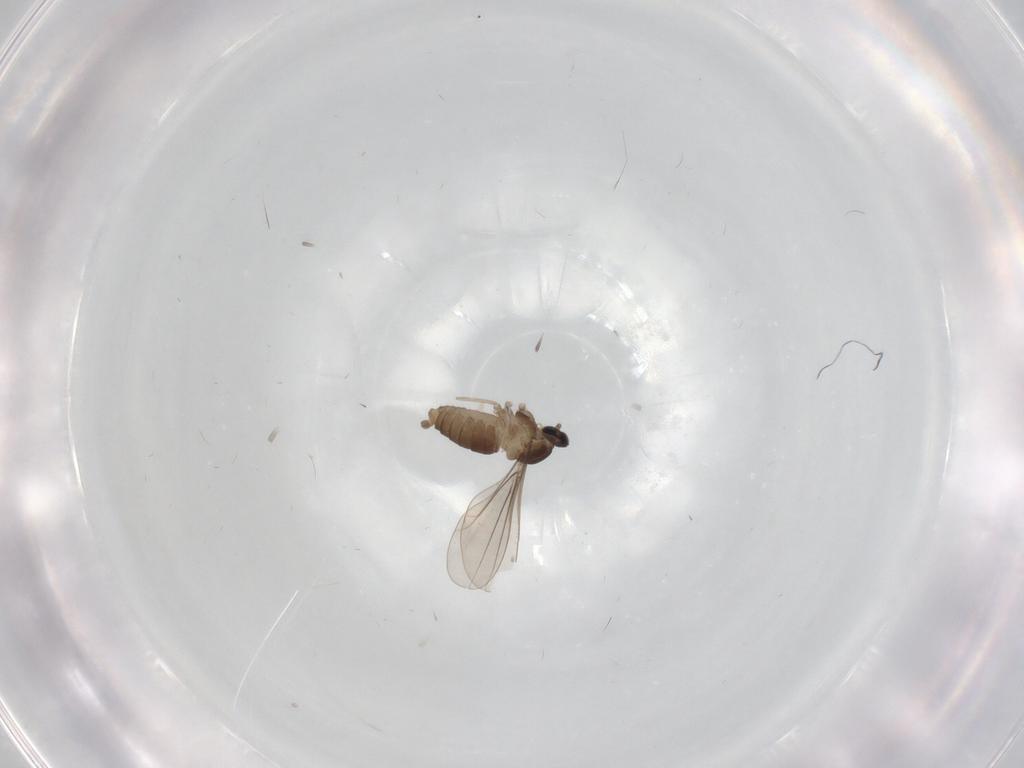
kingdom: Animalia
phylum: Arthropoda
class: Insecta
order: Diptera
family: Cecidomyiidae
